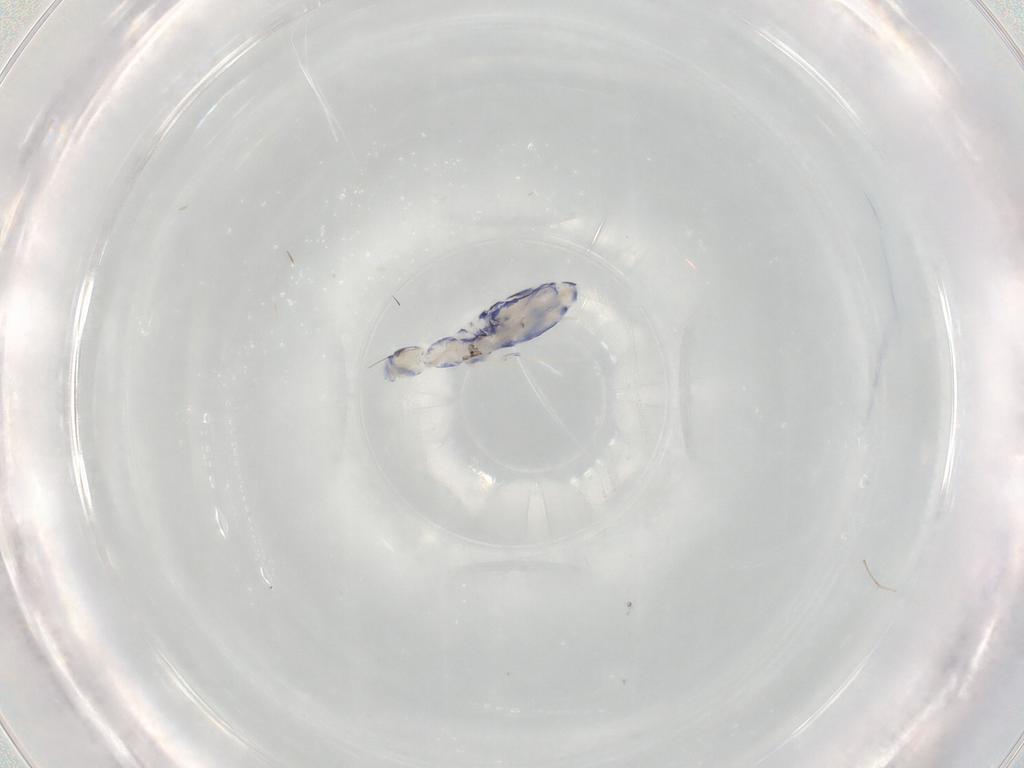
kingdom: Animalia
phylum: Arthropoda
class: Collembola
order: Entomobryomorpha
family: Entomobryidae
